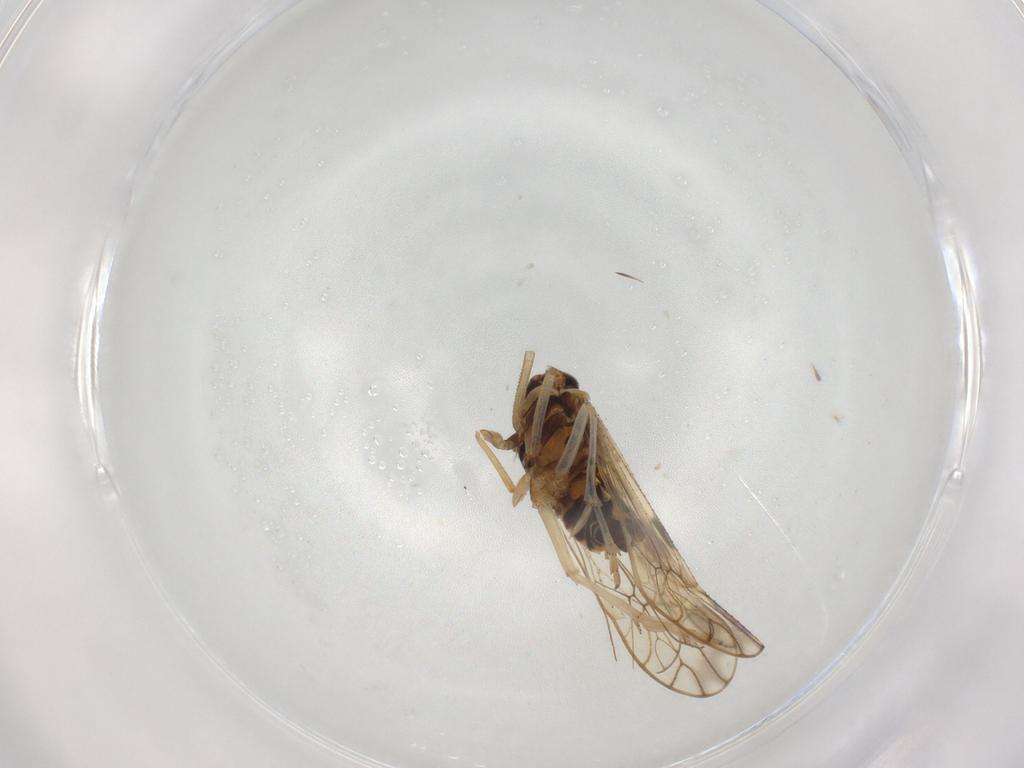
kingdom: Animalia
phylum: Arthropoda
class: Insecta
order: Hemiptera
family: Delphacidae
